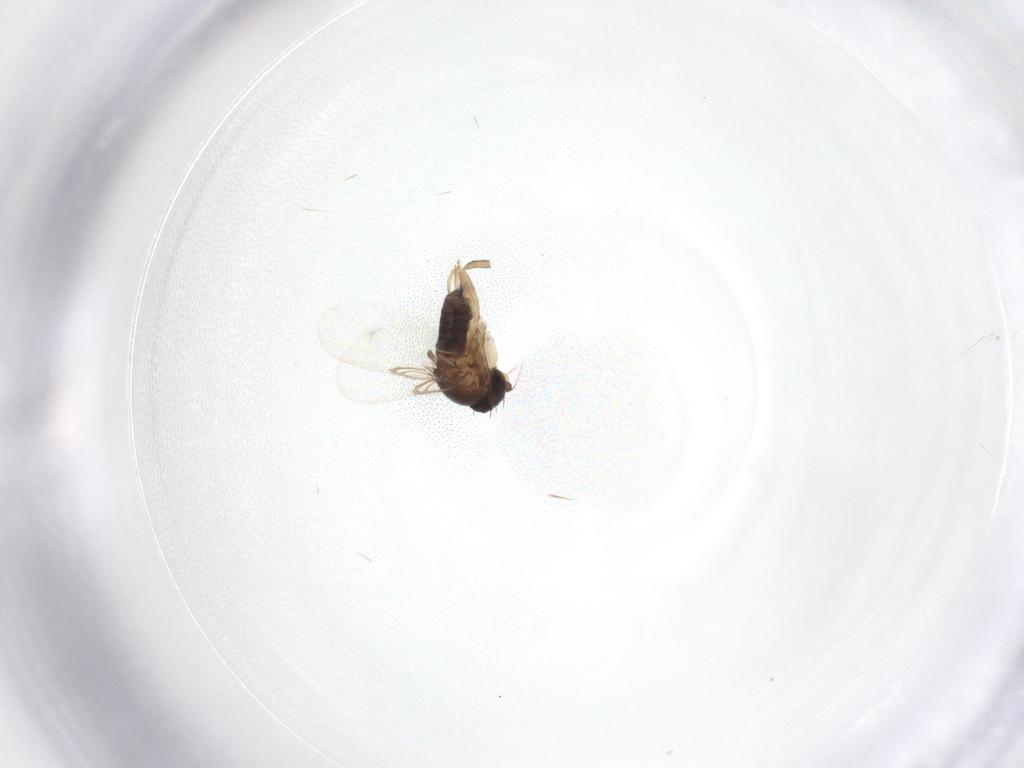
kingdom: Animalia
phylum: Arthropoda
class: Insecta
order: Diptera
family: Phoridae
